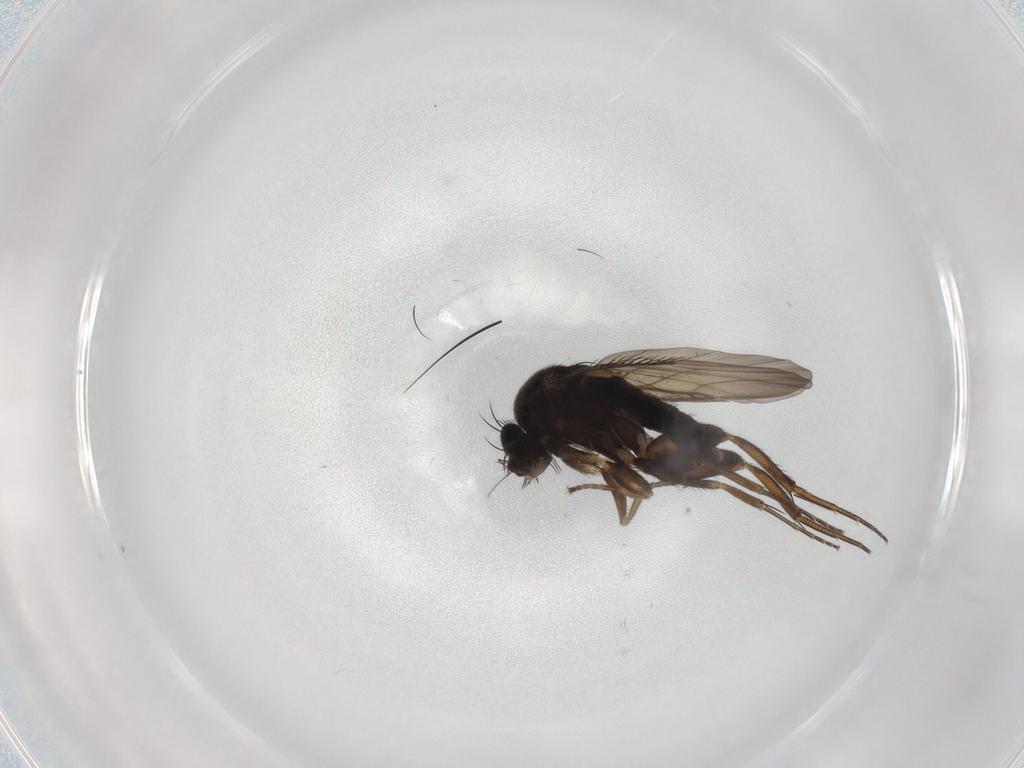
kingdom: Animalia
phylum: Arthropoda
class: Insecta
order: Diptera
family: Phoridae
